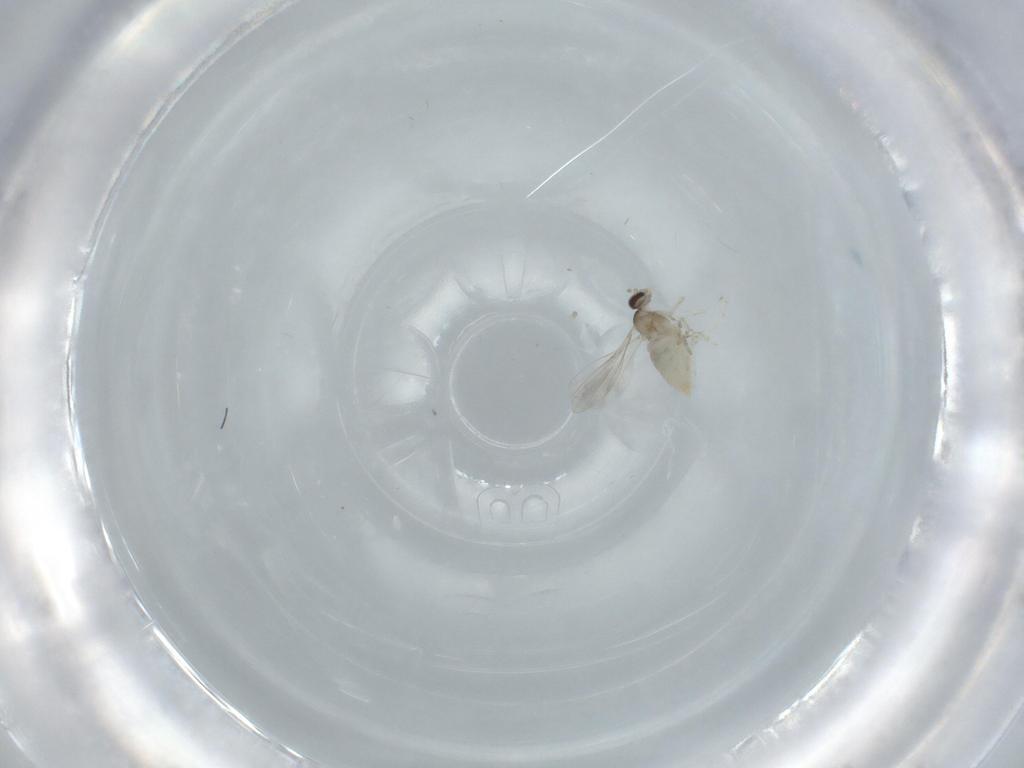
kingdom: Animalia
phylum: Arthropoda
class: Insecta
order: Diptera
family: Cecidomyiidae
